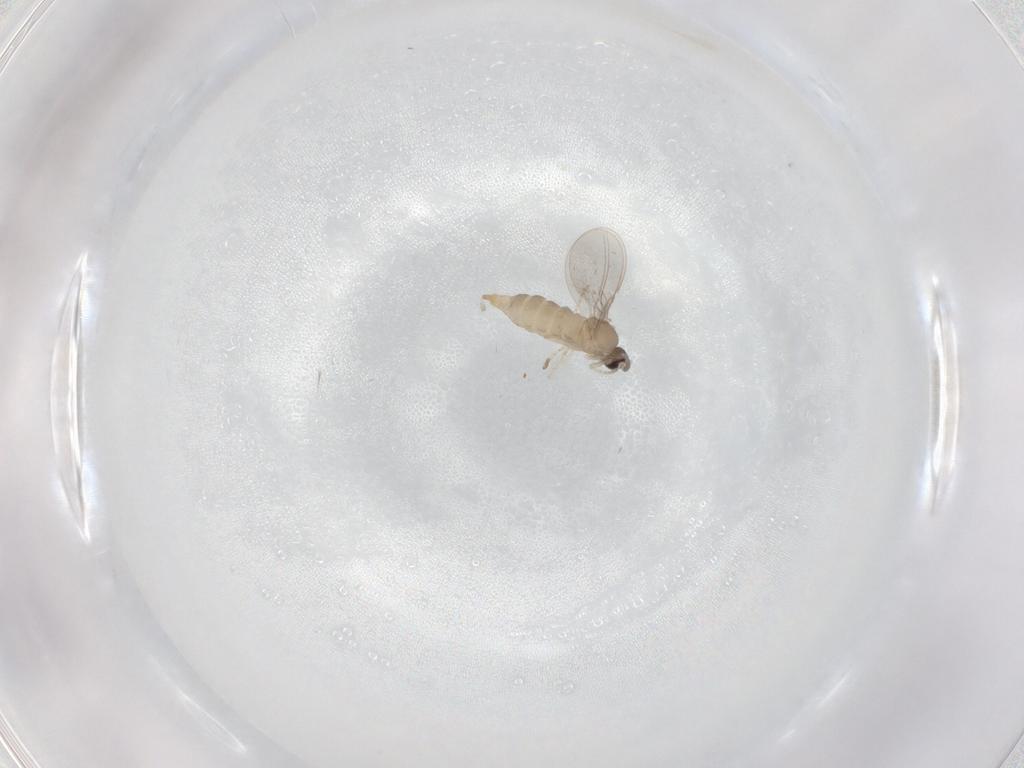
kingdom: Animalia
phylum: Arthropoda
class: Insecta
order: Diptera
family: Cecidomyiidae
